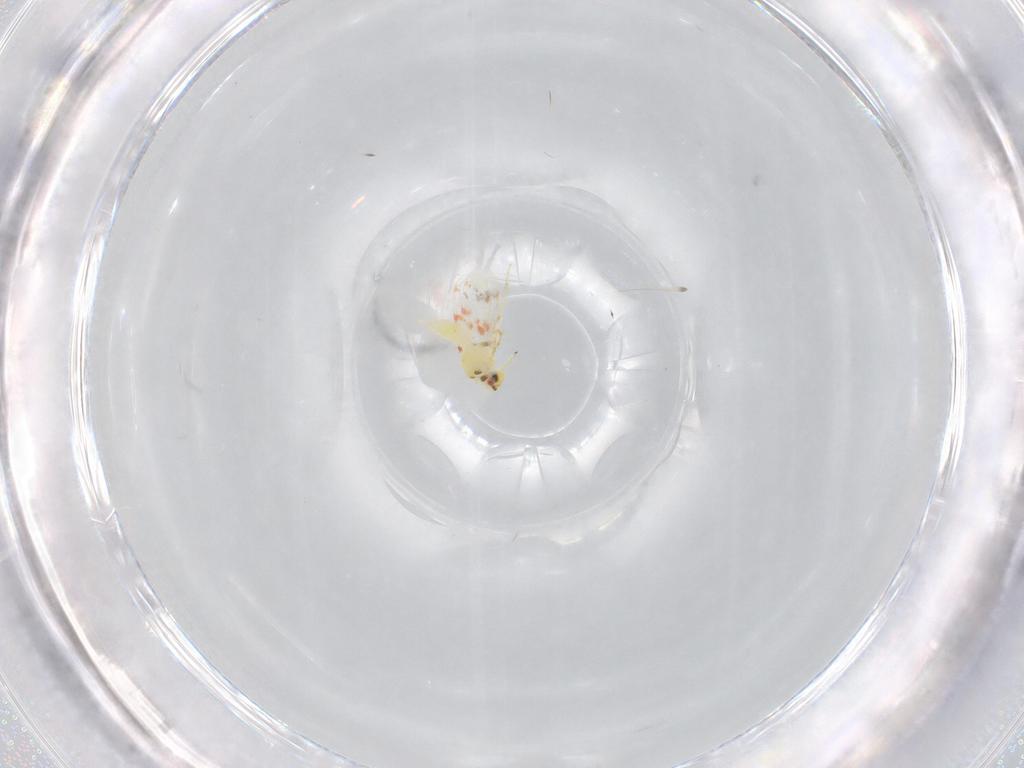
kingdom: Animalia
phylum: Arthropoda
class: Insecta
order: Hemiptera
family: Aleyrodidae
